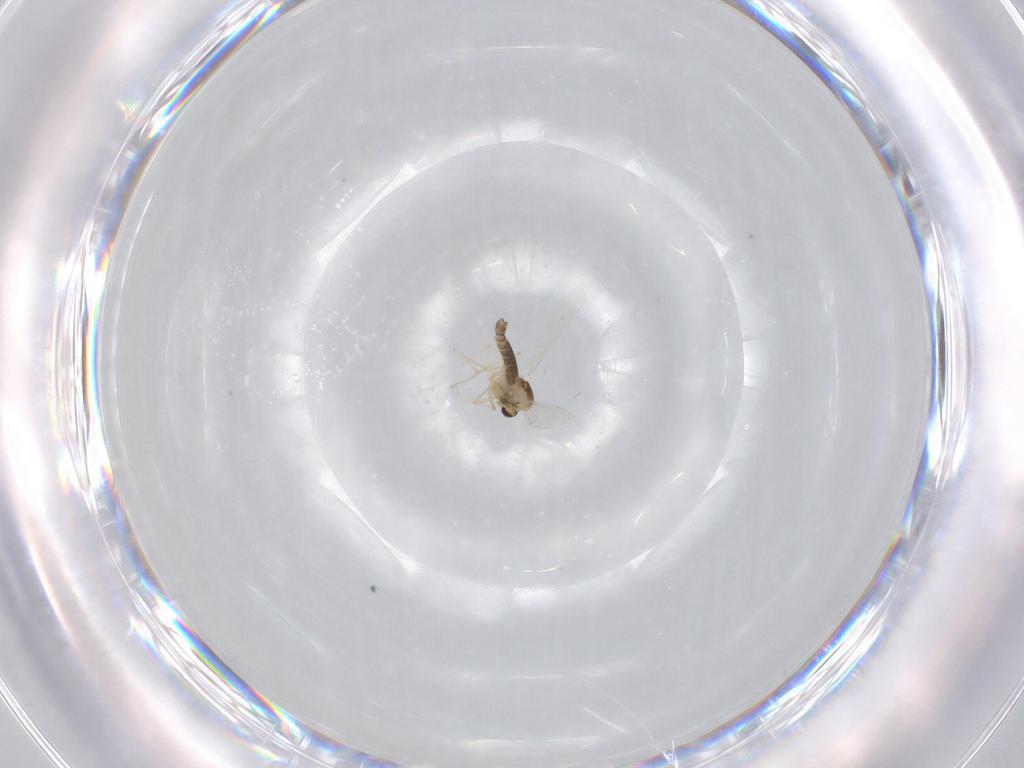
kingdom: Animalia
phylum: Arthropoda
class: Insecta
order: Diptera
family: Chironomidae
